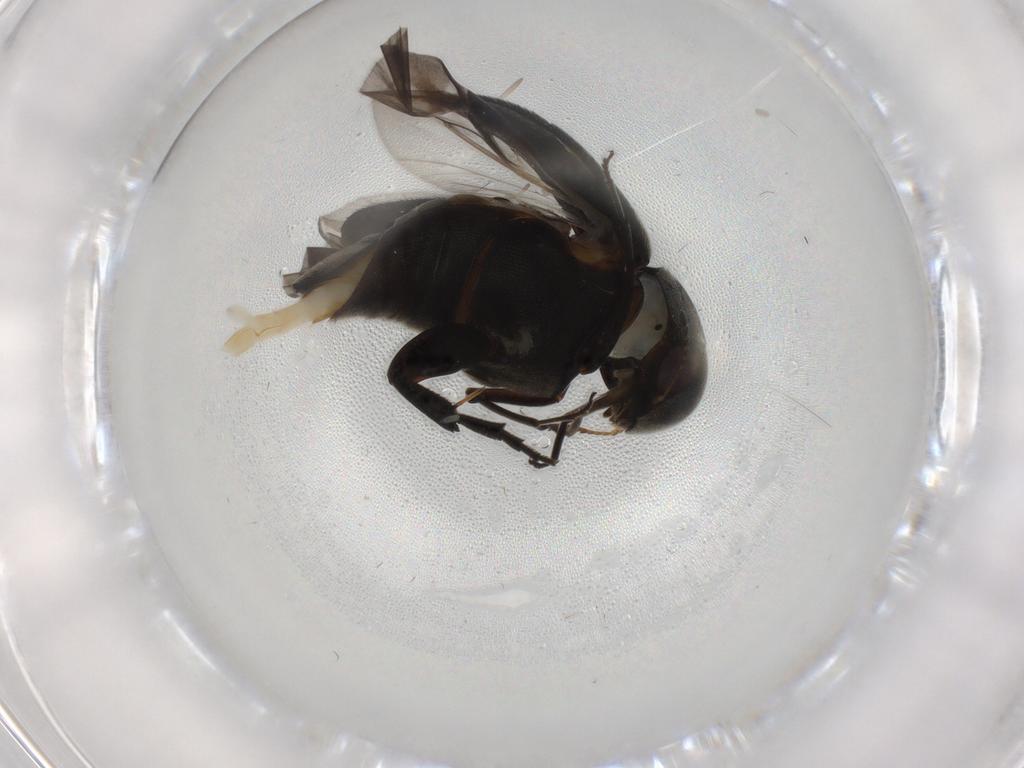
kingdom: Animalia
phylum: Arthropoda
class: Insecta
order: Coleoptera
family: Mordellidae
